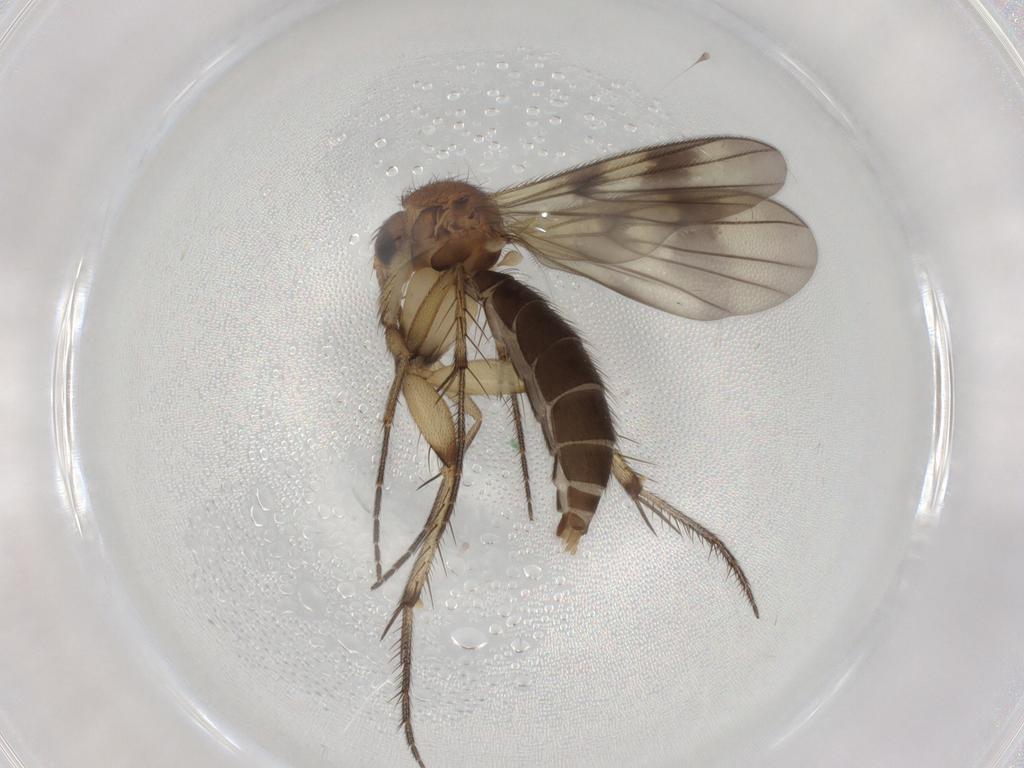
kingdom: Animalia
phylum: Arthropoda
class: Insecta
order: Diptera
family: Mycetophilidae
